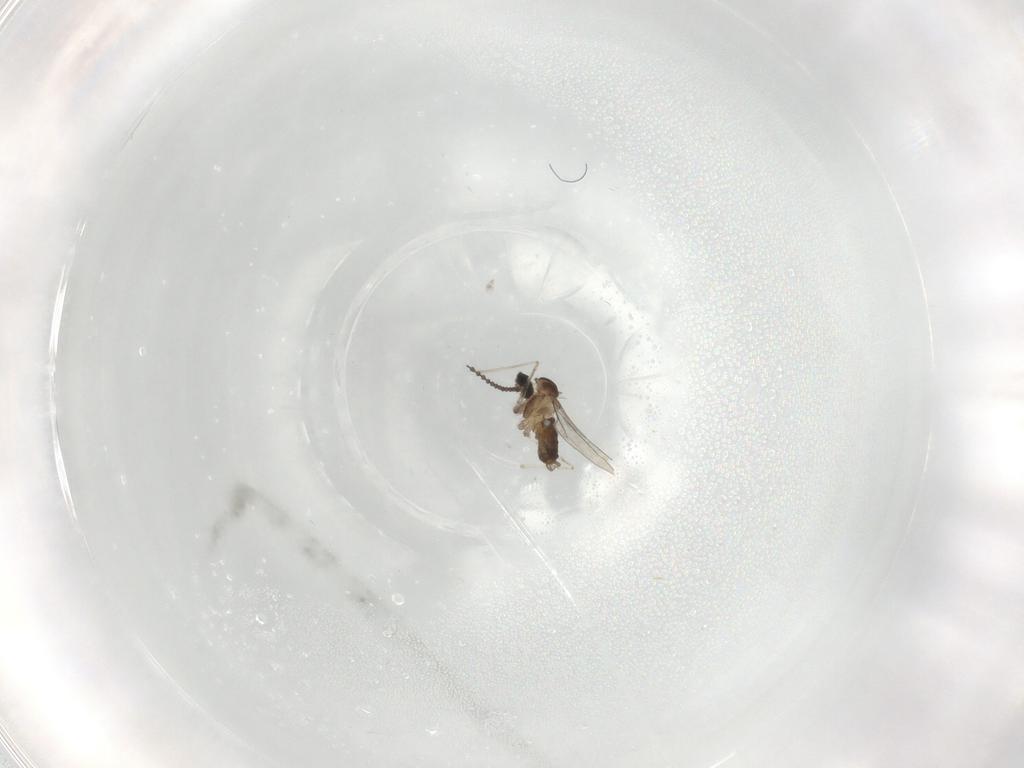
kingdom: Animalia
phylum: Arthropoda
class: Insecta
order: Diptera
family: Cecidomyiidae
